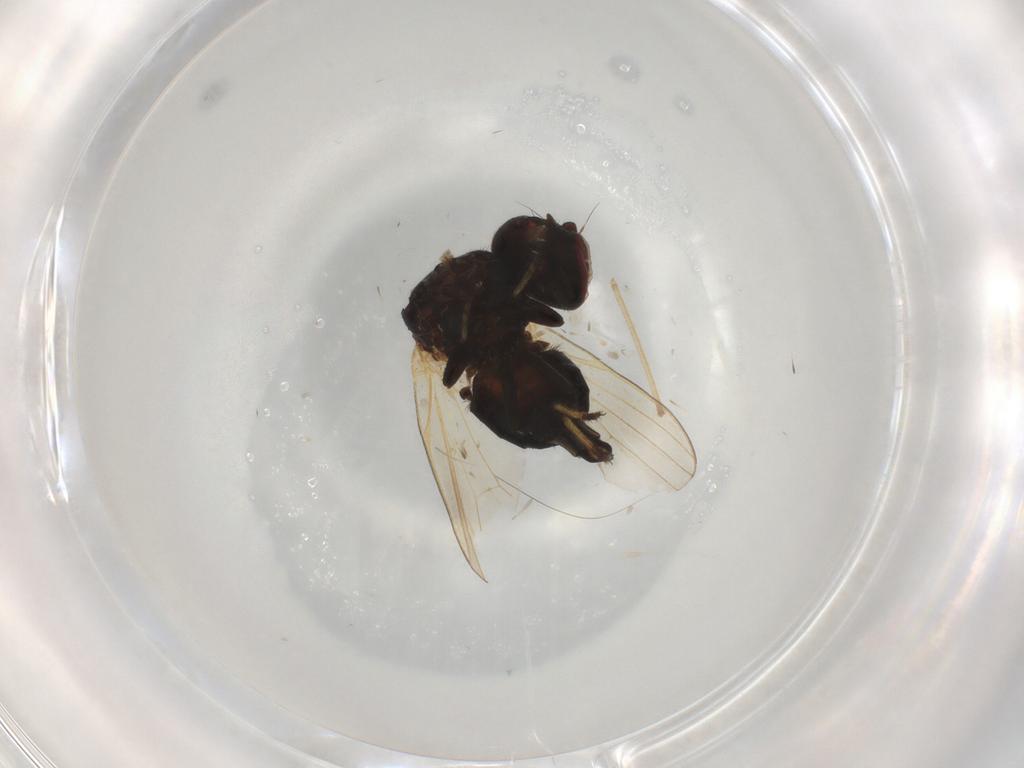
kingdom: Animalia
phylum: Arthropoda
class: Insecta
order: Diptera
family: Lonchaeidae
